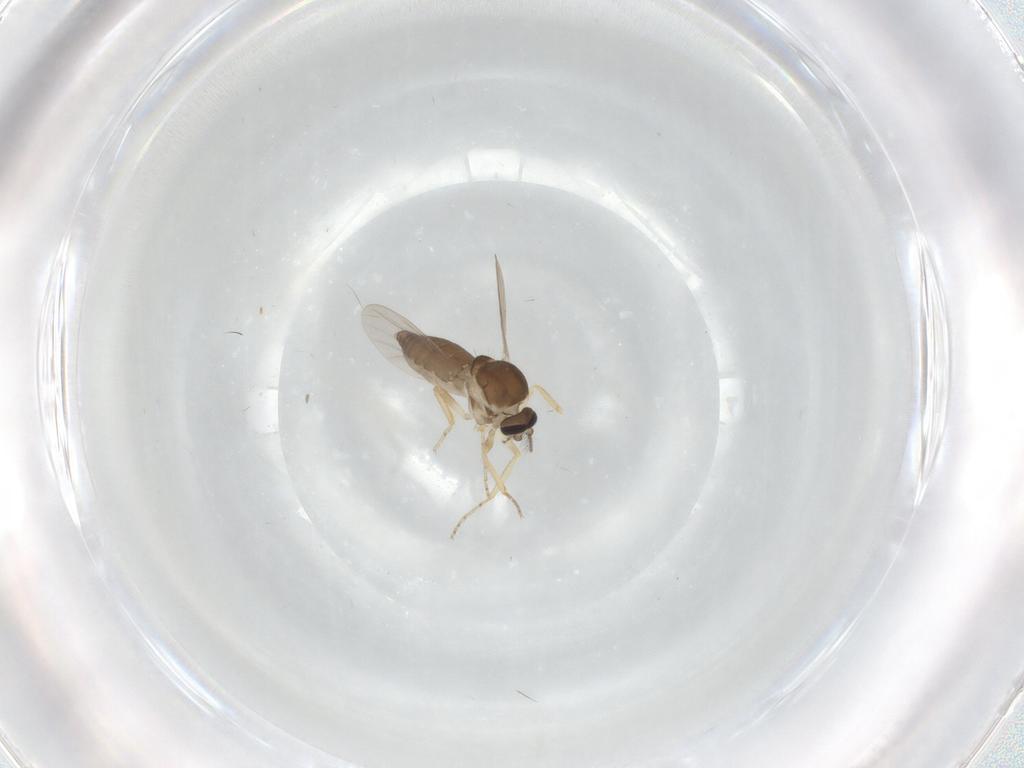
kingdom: Animalia
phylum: Arthropoda
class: Insecta
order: Diptera
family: Ceratopogonidae
